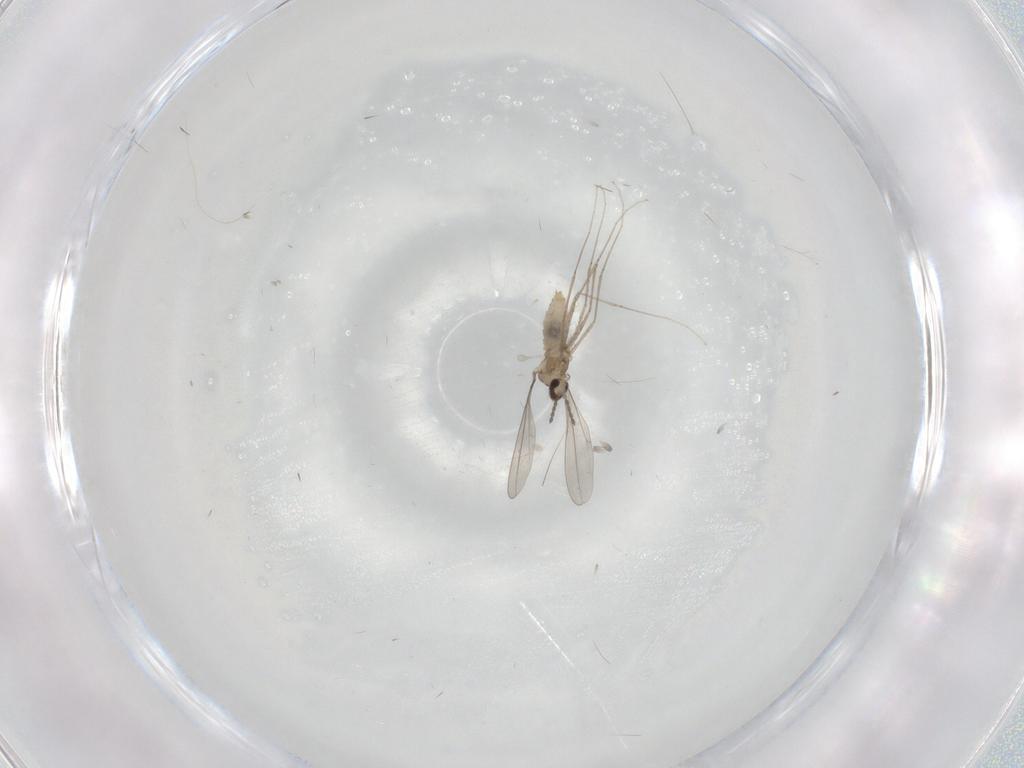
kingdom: Animalia
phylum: Arthropoda
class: Insecta
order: Diptera
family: Cecidomyiidae
